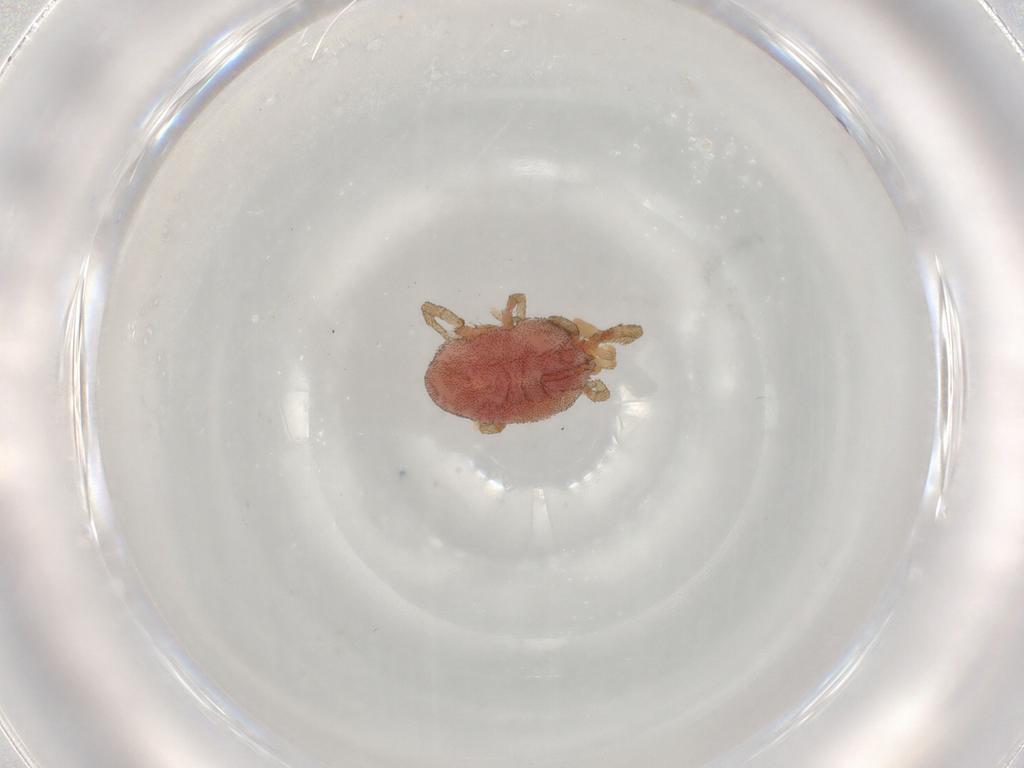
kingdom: Animalia
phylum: Arthropoda
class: Arachnida
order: Trombidiformes
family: Erythraeidae
